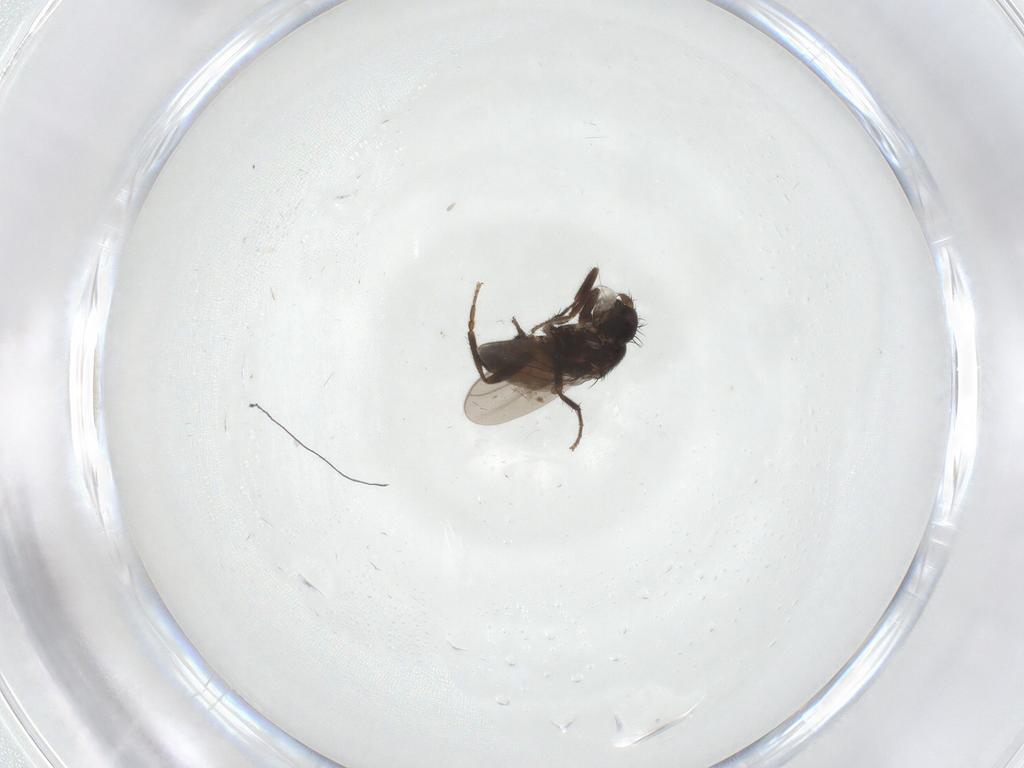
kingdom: Animalia
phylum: Arthropoda
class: Insecta
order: Diptera
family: Sphaeroceridae
